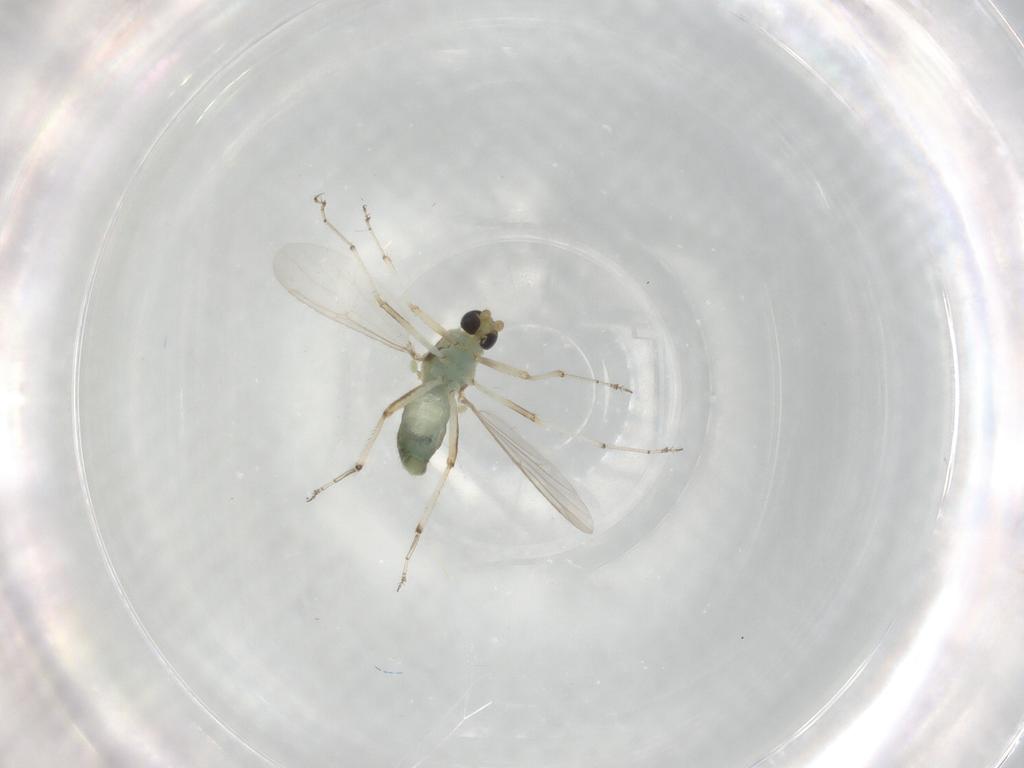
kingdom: Animalia
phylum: Arthropoda
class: Insecta
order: Diptera
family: Ceratopogonidae
